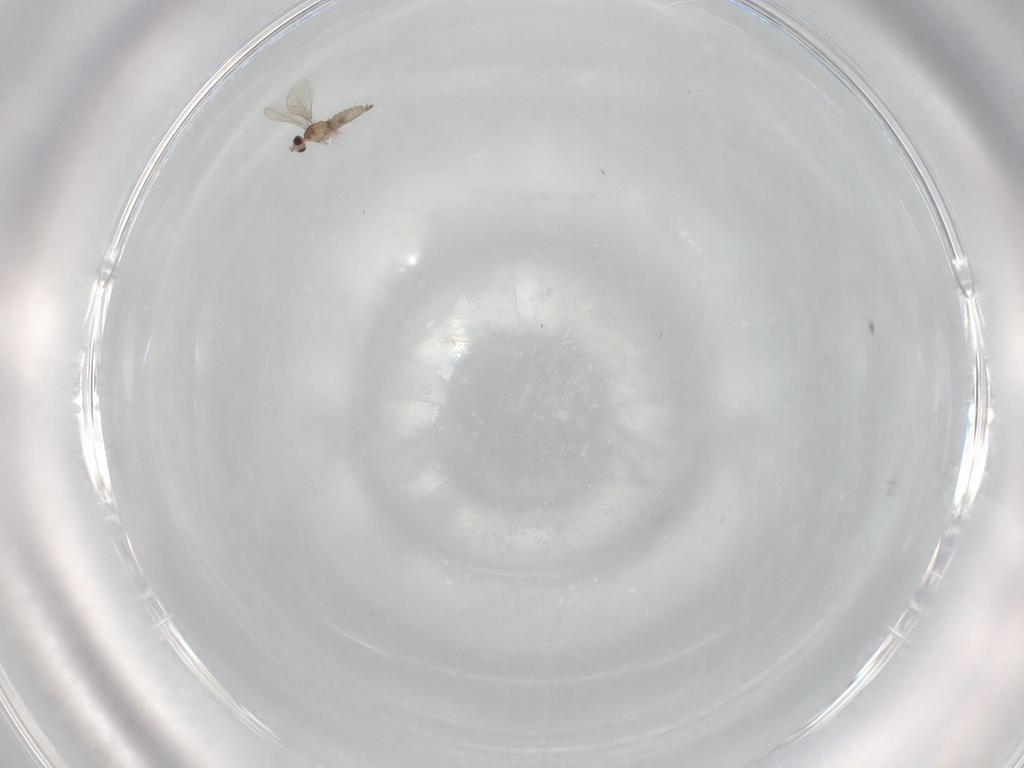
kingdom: Animalia
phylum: Arthropoda
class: Insecta
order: Diptera
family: Cecidomyiidae
